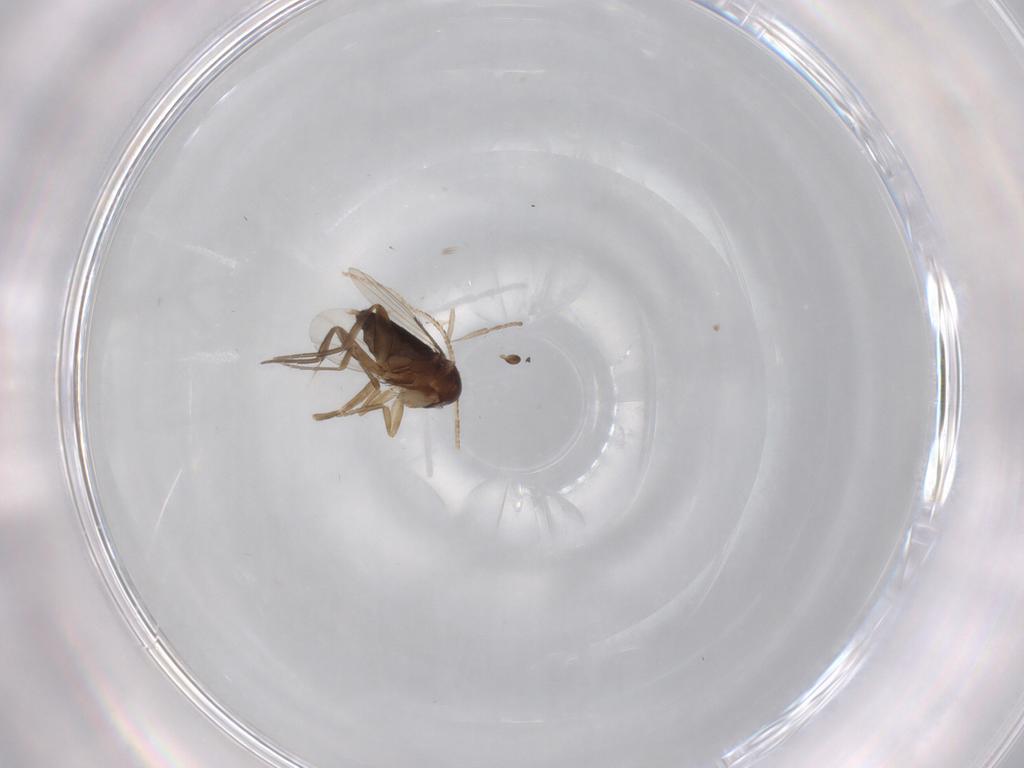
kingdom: Animalia
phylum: Arthropoda
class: Insecta
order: Diptera
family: Phoridae
